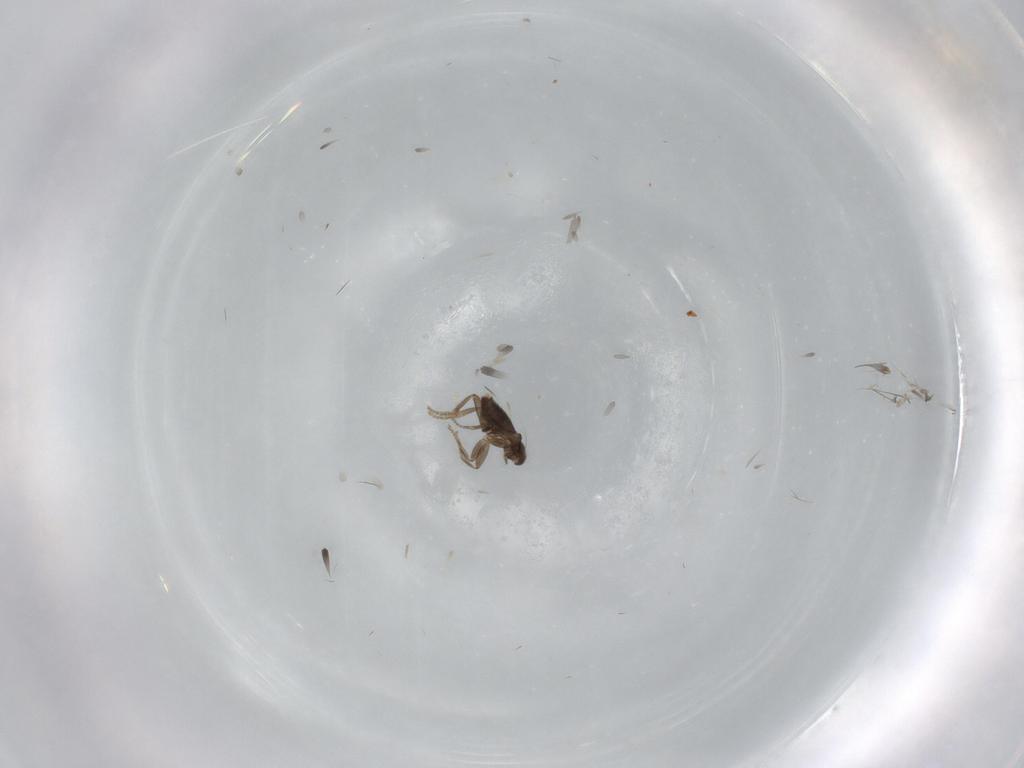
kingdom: Animalia
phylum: Arthropoda
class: Insecta
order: Diptera
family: Phoridae
